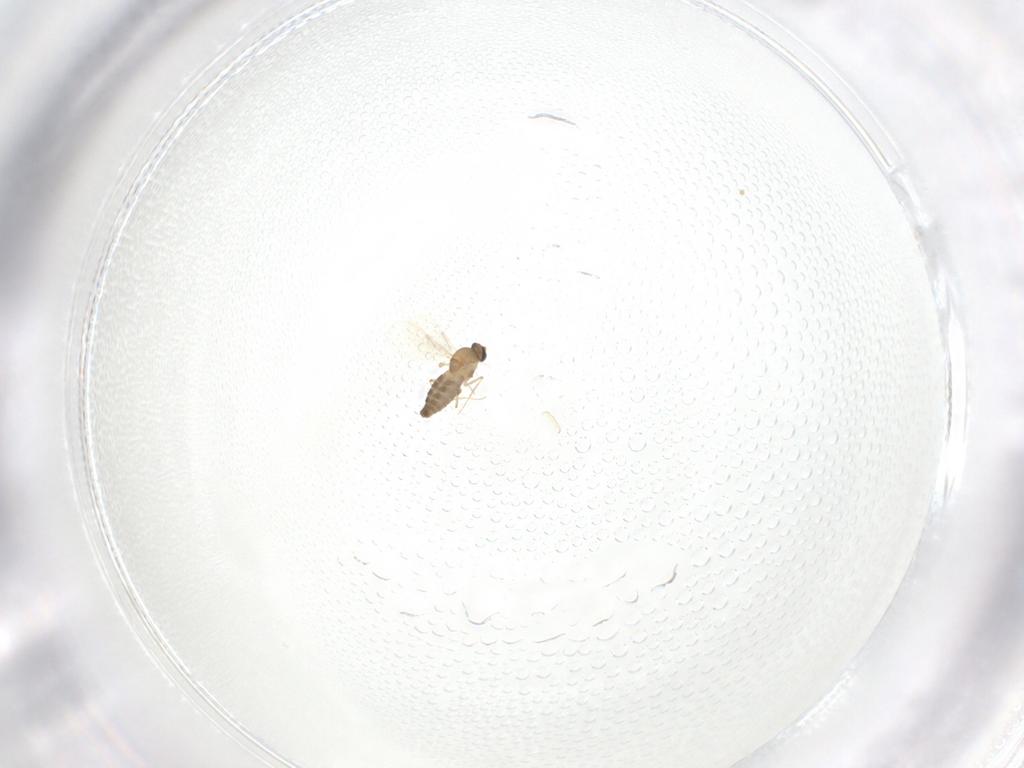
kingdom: Animalia
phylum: Arthropoda
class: Insecta
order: Diptera
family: Ceratopogonidae
